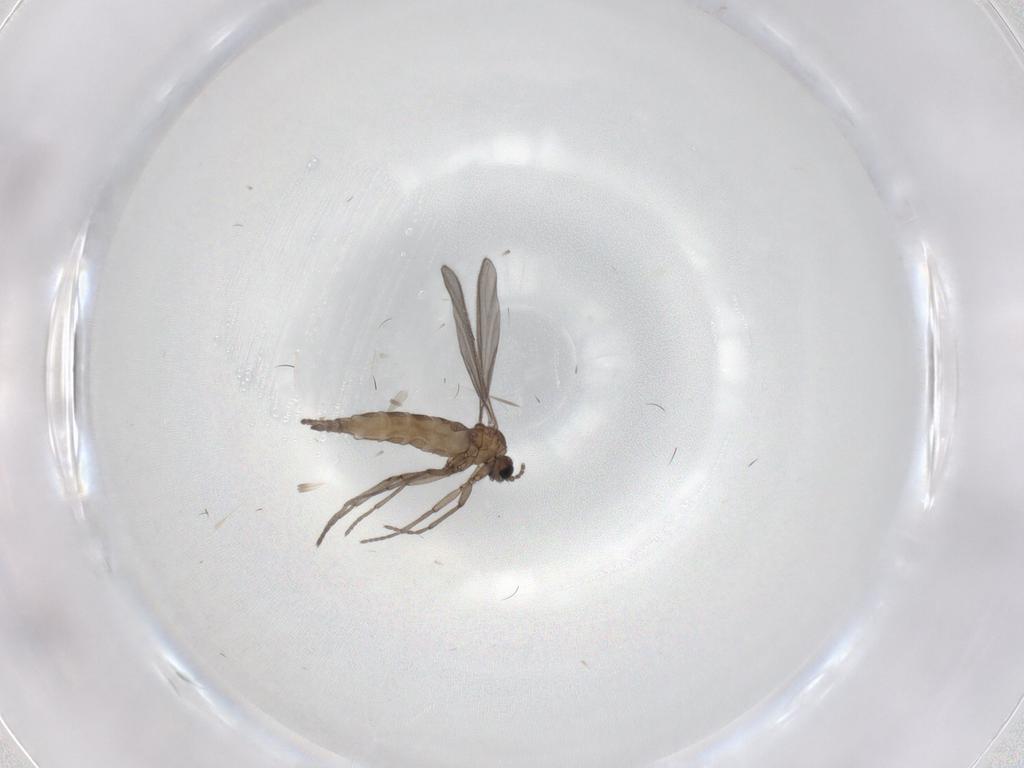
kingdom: Animalia
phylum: Arthropoda
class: Insecta
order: Diptera
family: Sciaridae
